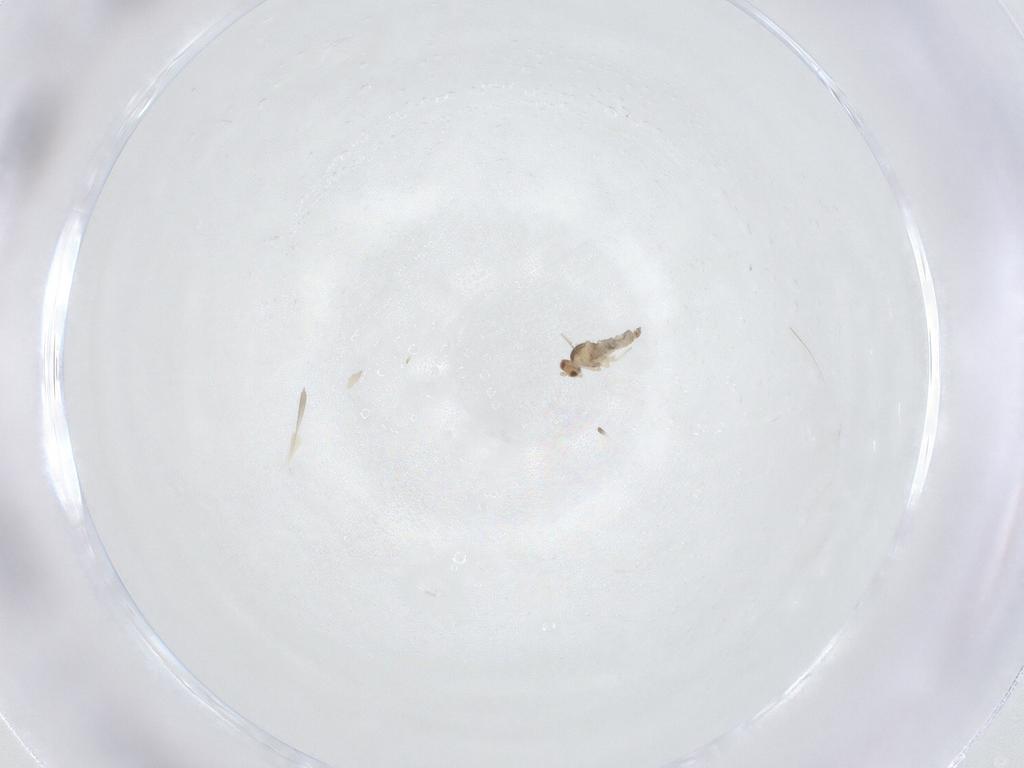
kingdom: Animalia
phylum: Arthropoda
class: Insecta
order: Diptera
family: Cecidomyiidae
